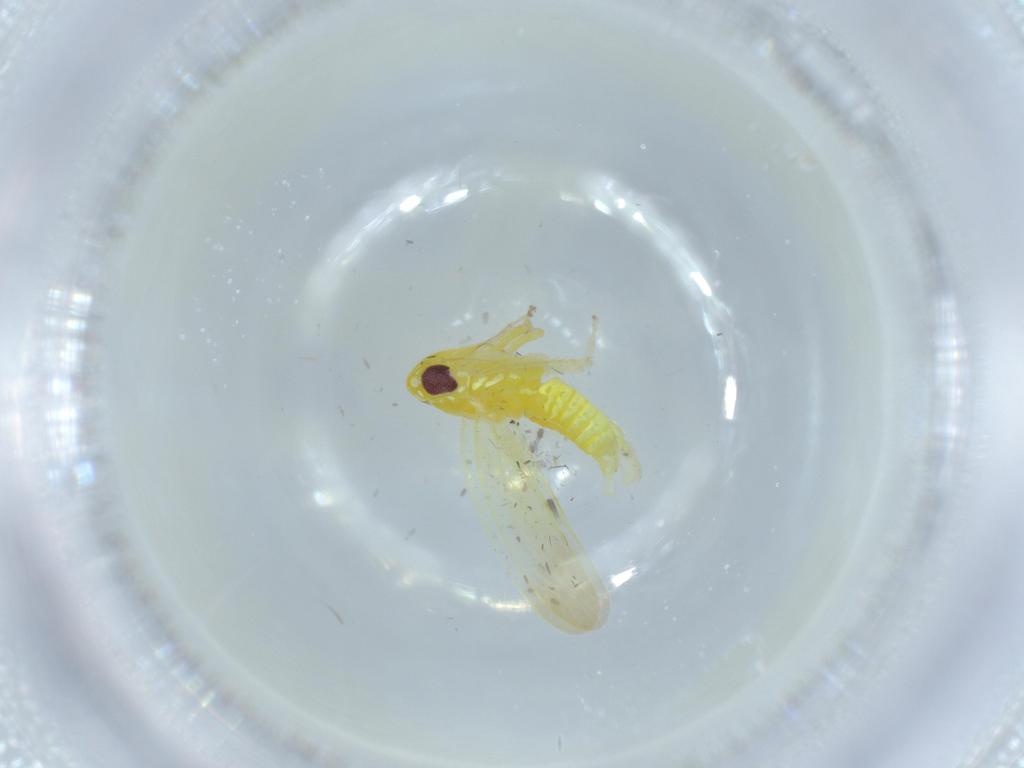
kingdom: Animalia
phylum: Arthropoda
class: Insecta
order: Hemiptera
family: Cicadellidae
